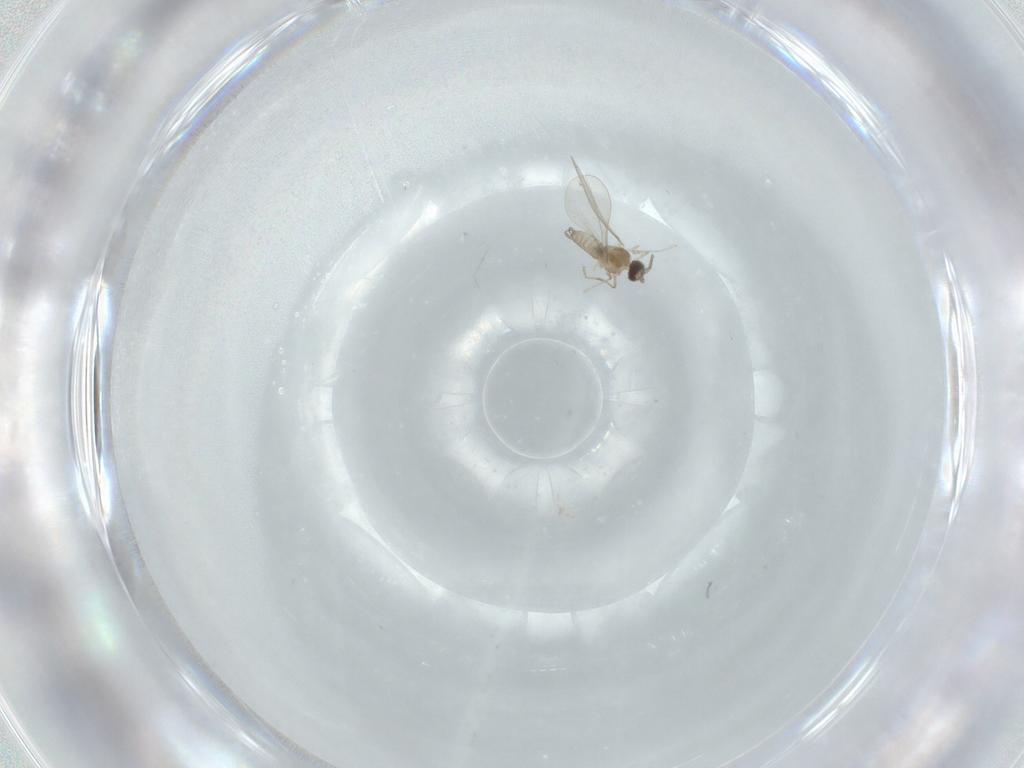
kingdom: Animalia
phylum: Arthropoda
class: Insecta
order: Diptera
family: Cecidomyiidae
